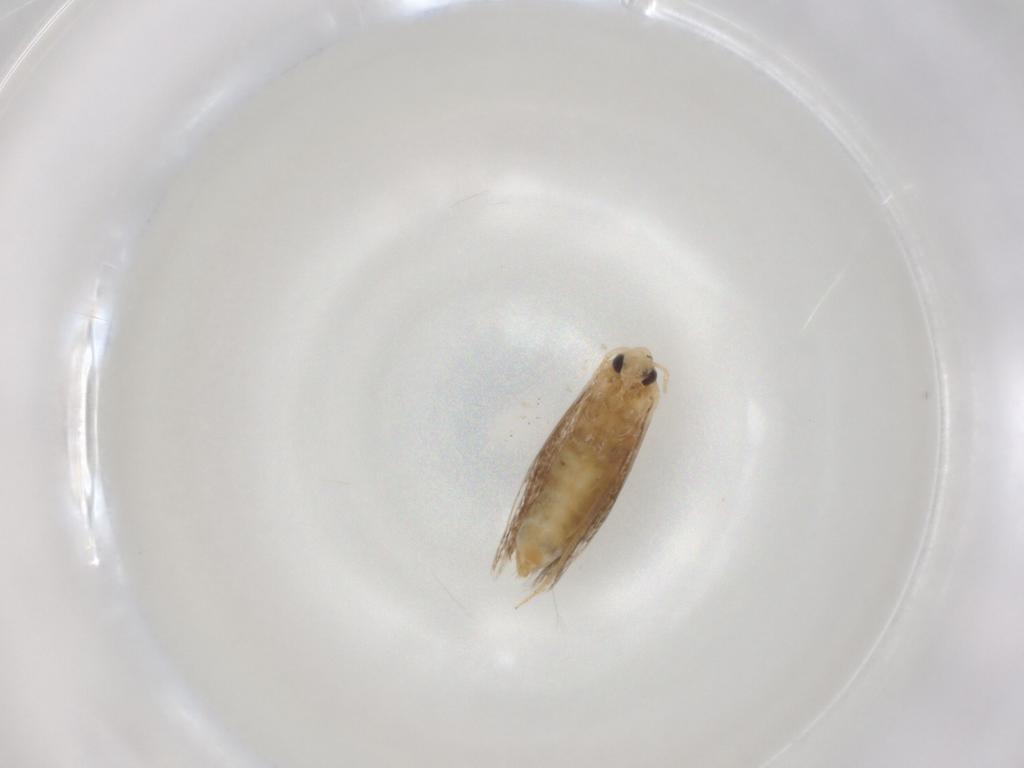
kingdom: Animalia
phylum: Arthropoda
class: Insecta
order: Lepidoptera
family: Bucculatricidae
